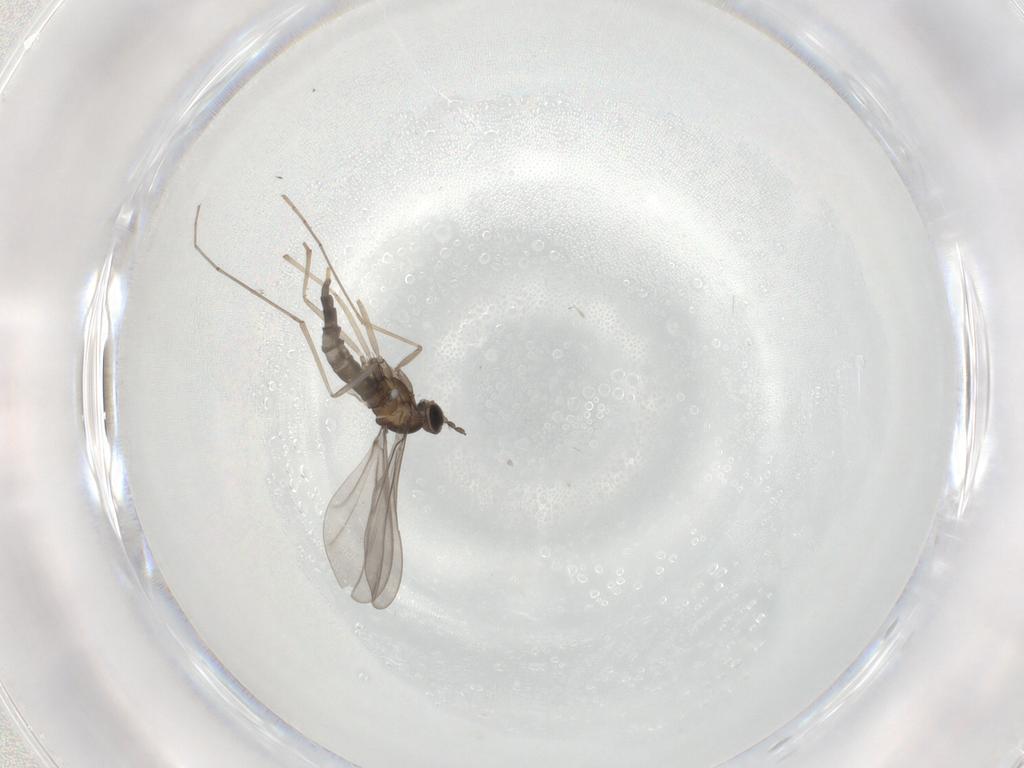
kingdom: Animalia
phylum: Arthropoda
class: Insecta
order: Diptera
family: Cecidomyiidae
